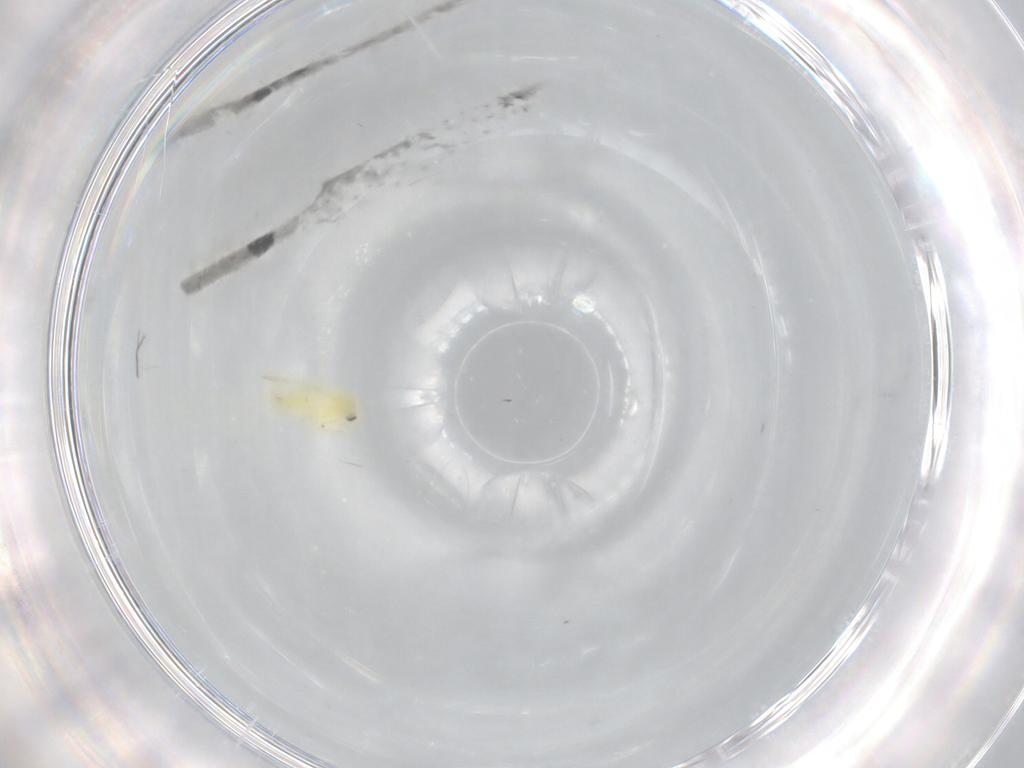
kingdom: Animalia
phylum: Arthropoda
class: Insecta
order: Hemiptera
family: Aleyrodidae
